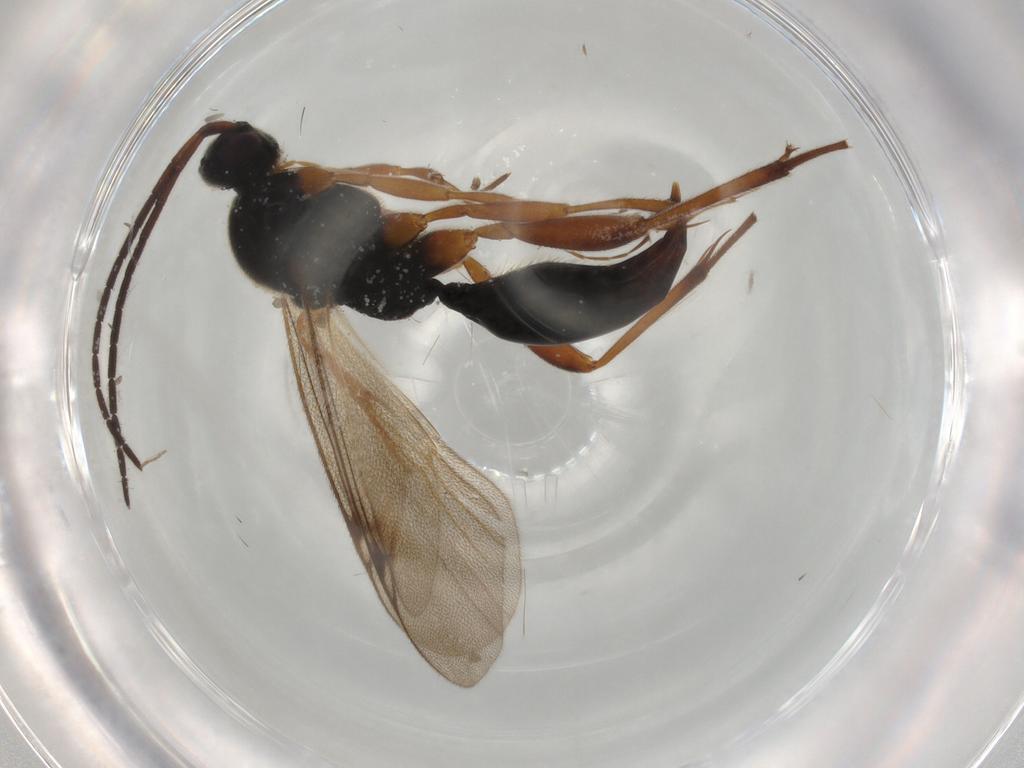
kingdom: Animalia
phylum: Arthropoda
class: Insecta
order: Hymenoptera
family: Proctotrupidae
